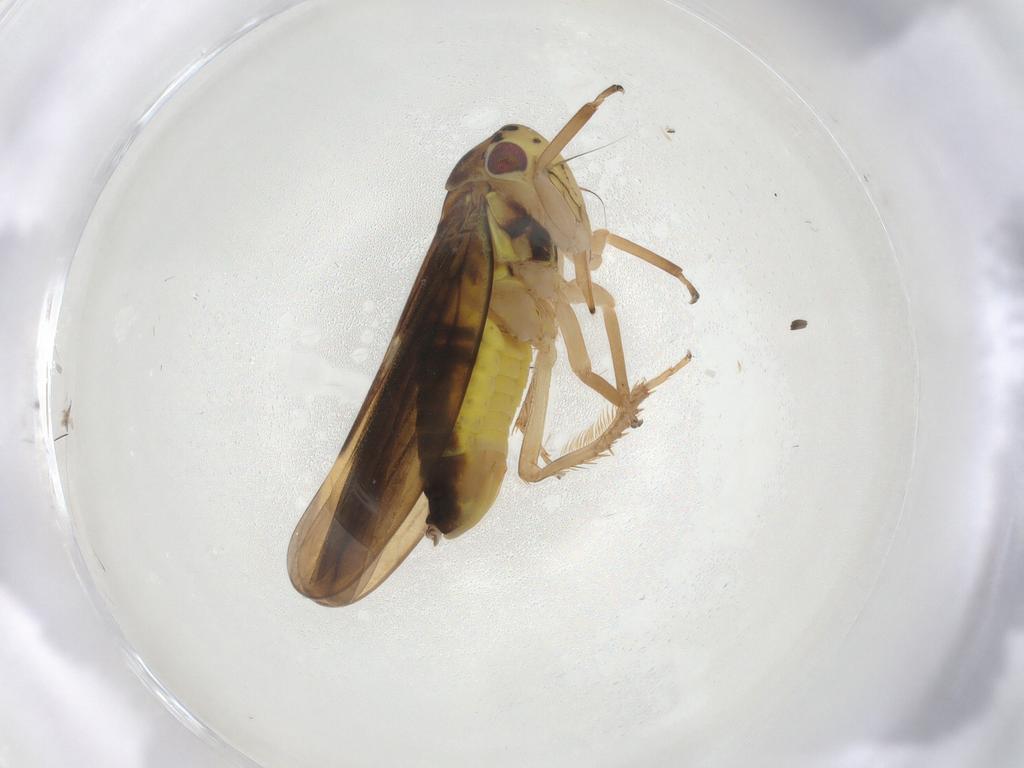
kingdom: Animalia
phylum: Arthropoda
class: Insecta
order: Hemiptera
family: Cicadellidae
